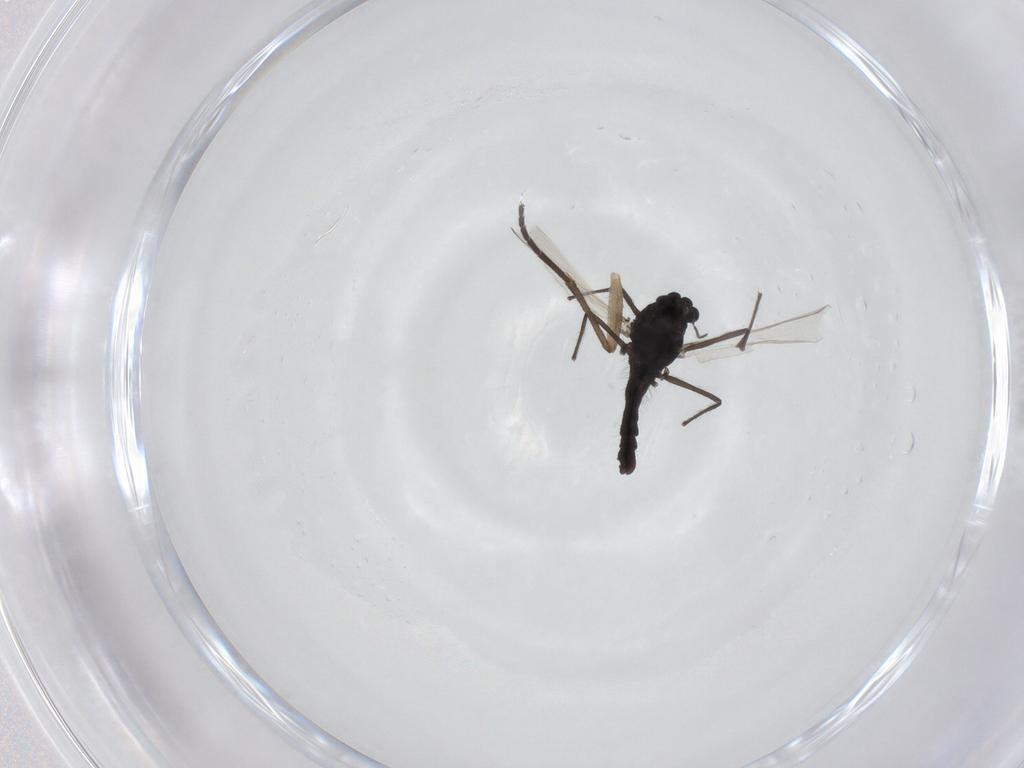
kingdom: Animalia
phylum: Arthropoda
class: Insecta
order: Diptera
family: Sciaridae
